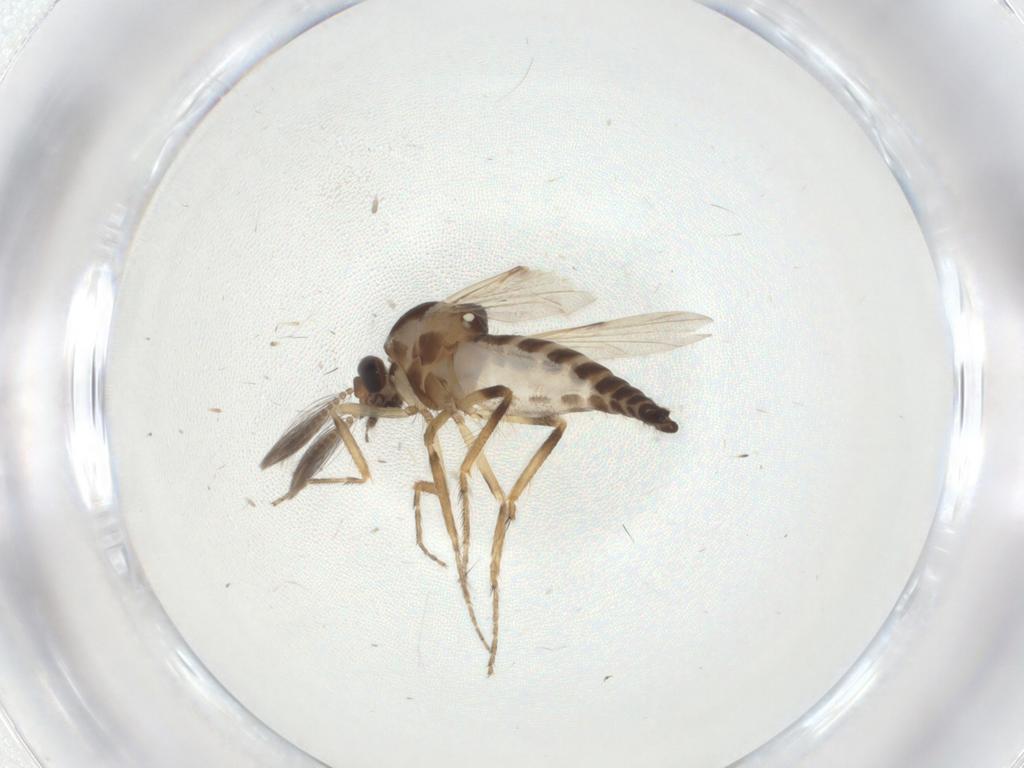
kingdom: Animalia
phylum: Arthropoda
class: Insecta
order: Diptera
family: Ceratopogonidae
